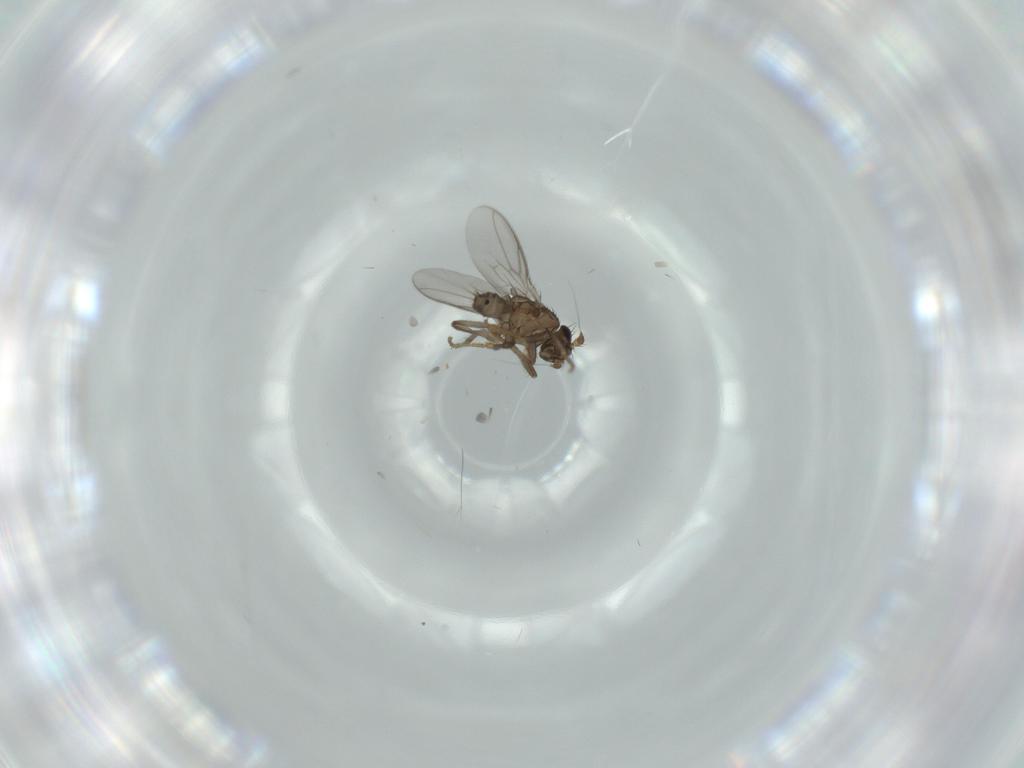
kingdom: Animalia
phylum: Arthropoda
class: Insecta
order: Diptera
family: Sphaeroceridae
